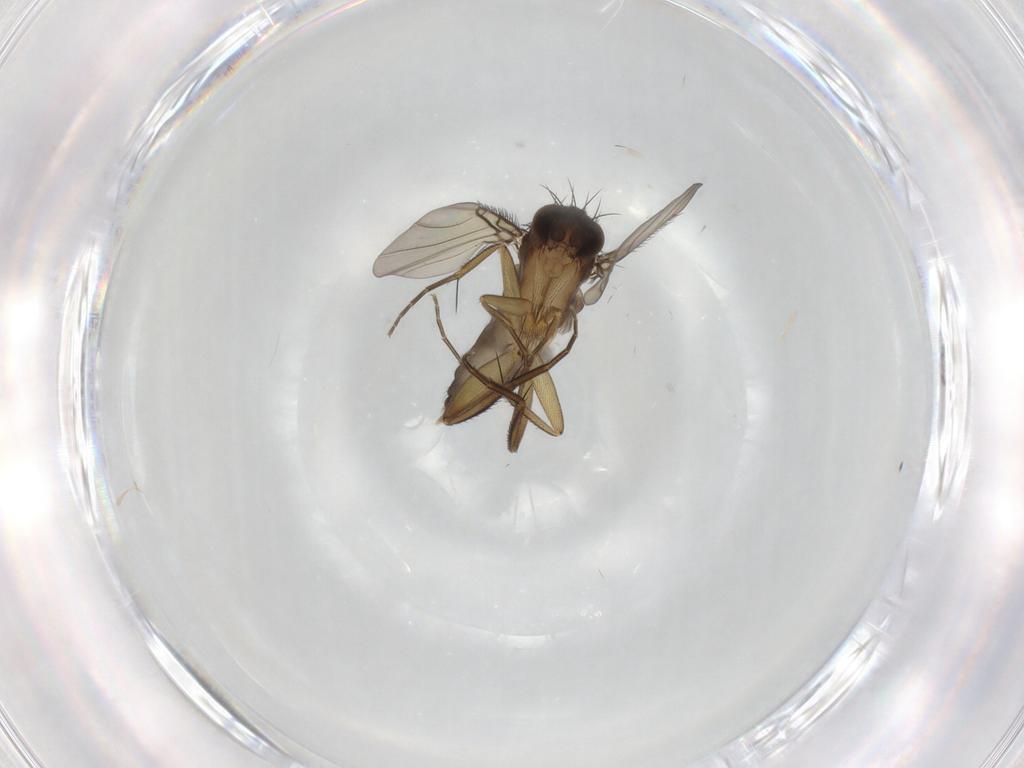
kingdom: Animalia
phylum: Arthropoda
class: Insecta
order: Diptera
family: Phoridae
